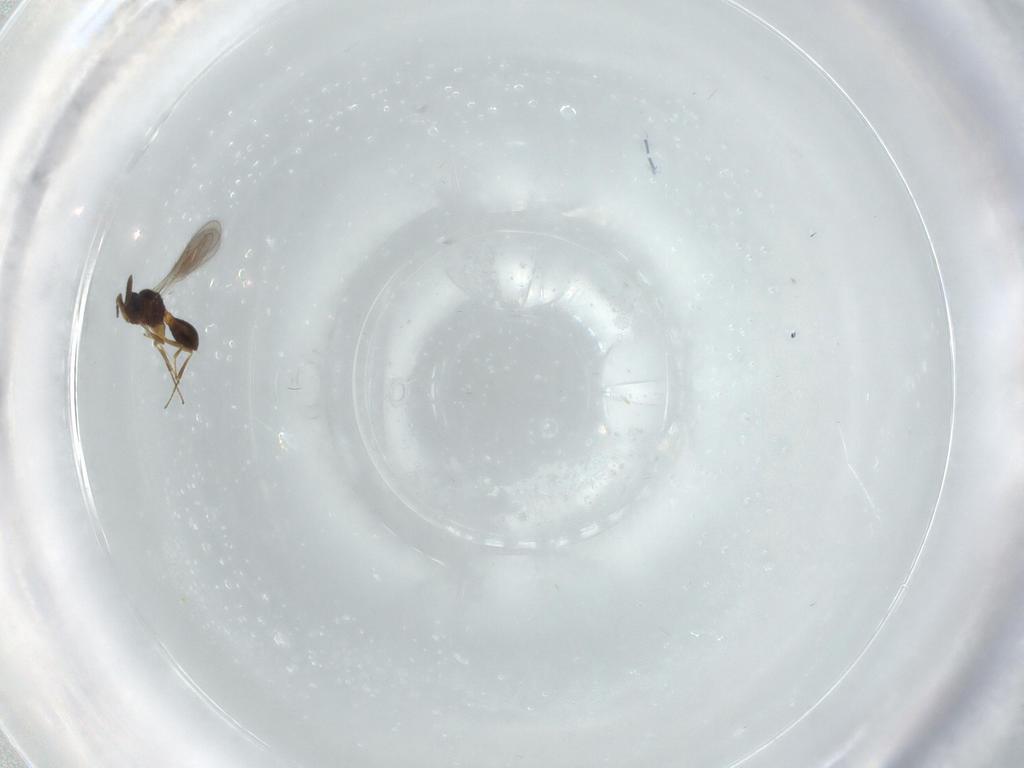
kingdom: Animalia
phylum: Arthropoda
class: Insecta
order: Hymenoptera
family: Scelionidae
